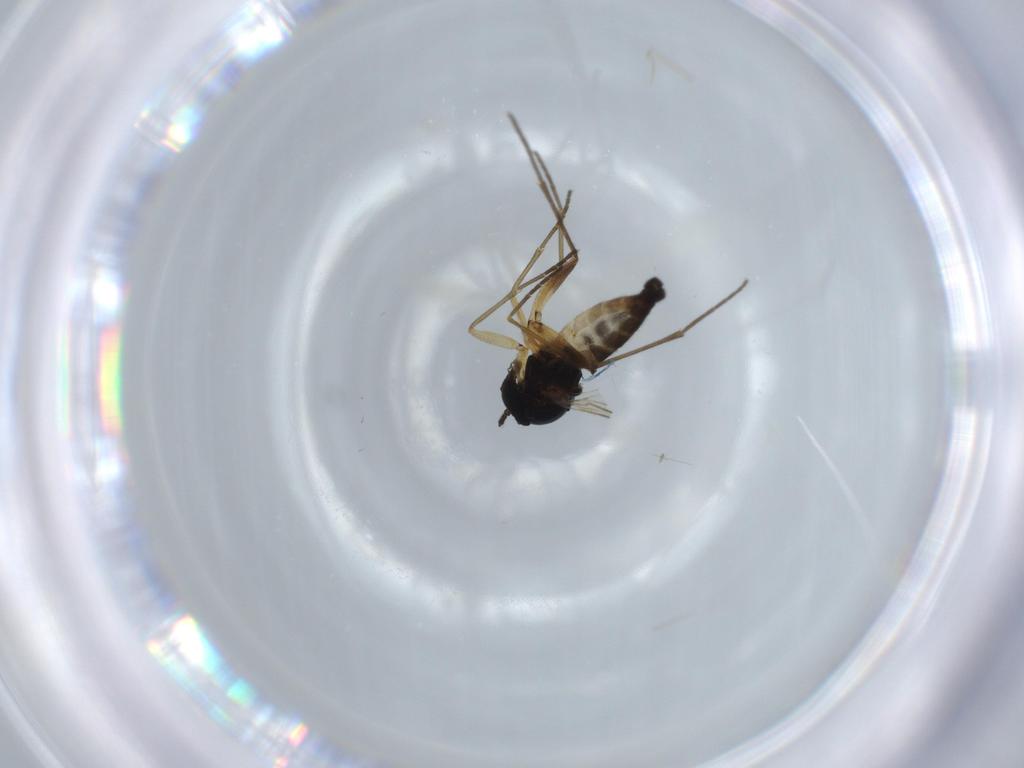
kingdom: Animalia
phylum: Arthropoda
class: Insecta
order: Diptera
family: Sciaridae
